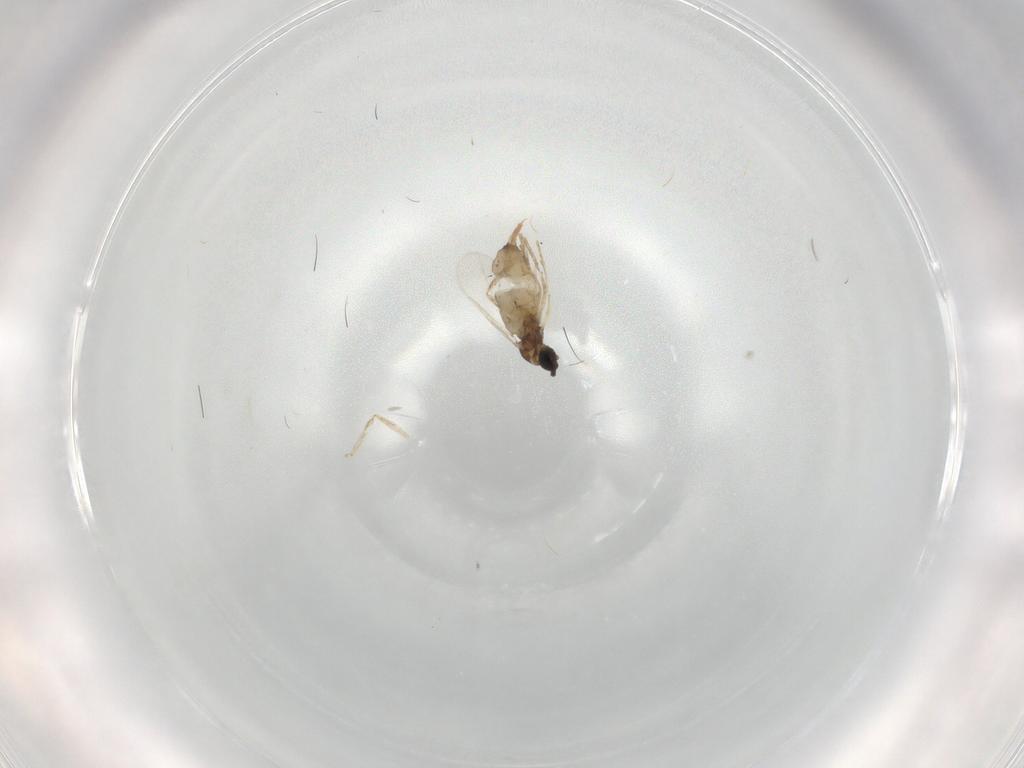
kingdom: Animalia
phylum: Arthropoda
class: Insecta
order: Diptera
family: Cecidomyiidae
